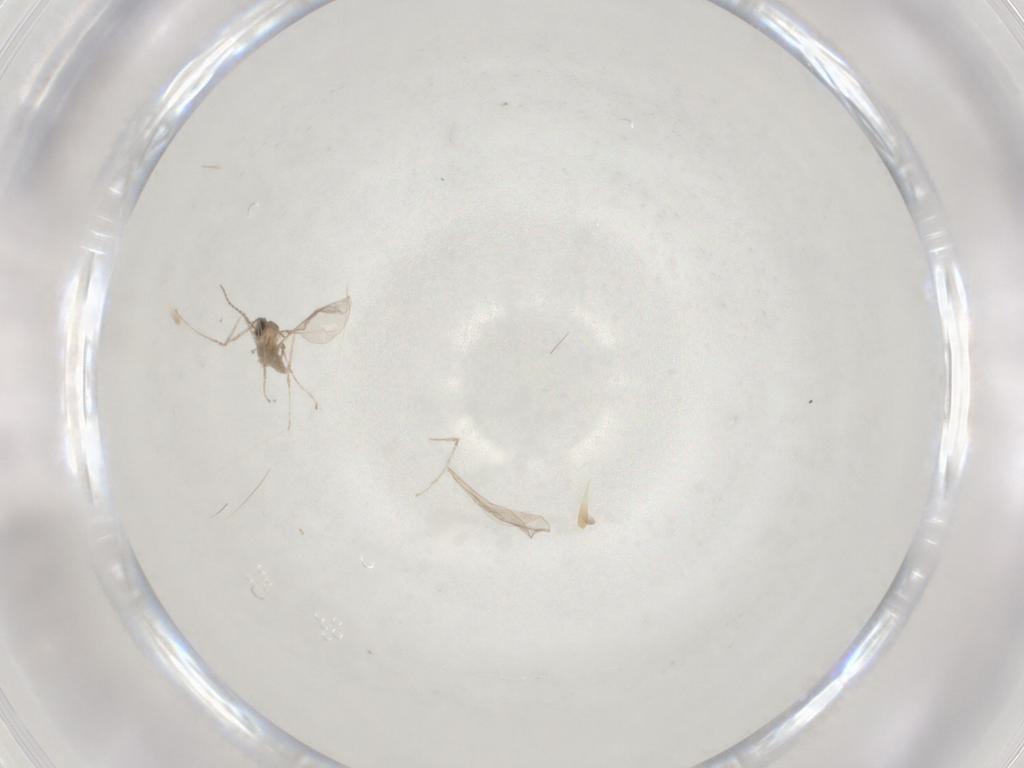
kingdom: Animalia
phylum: Arthropoda
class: Insecta
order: Diptera
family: Cecidomyiidae
